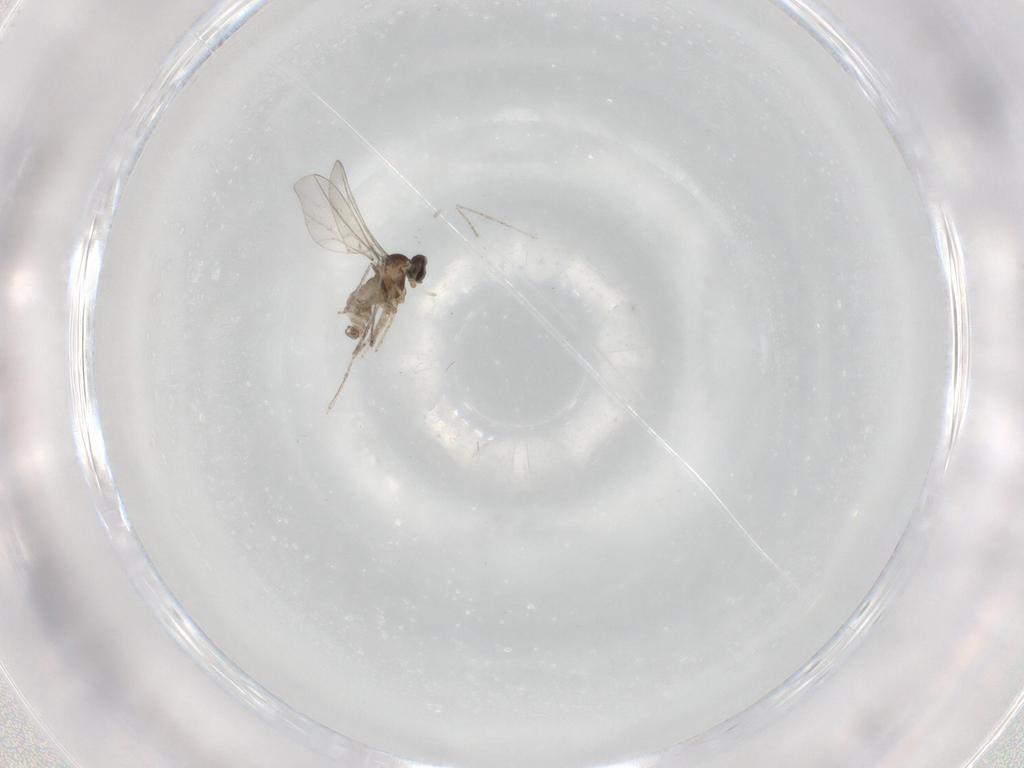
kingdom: Animalia
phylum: Arthropoda
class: Insecta
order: Diptera
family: Cecidomyiidae
